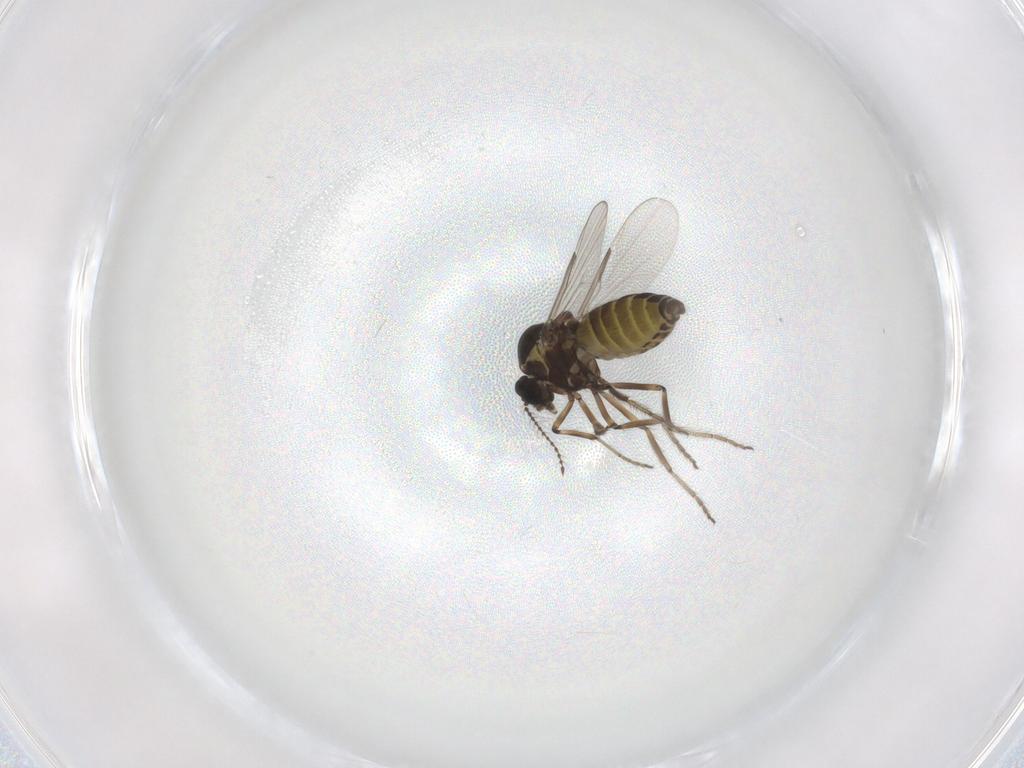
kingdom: Animalia
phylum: Arthropoda
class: Insecta
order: Diptera
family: Ceratopogonidae
